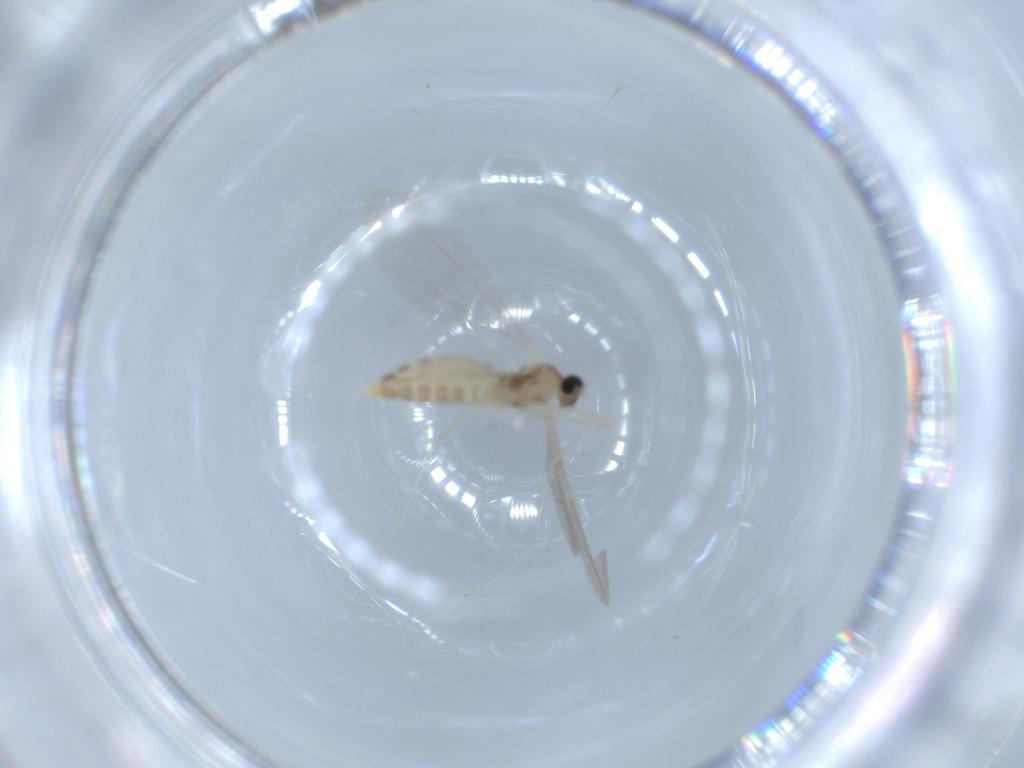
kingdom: Animalia
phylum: Arthropoda
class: Insecta
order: Diptera
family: Cecidomyiidae
